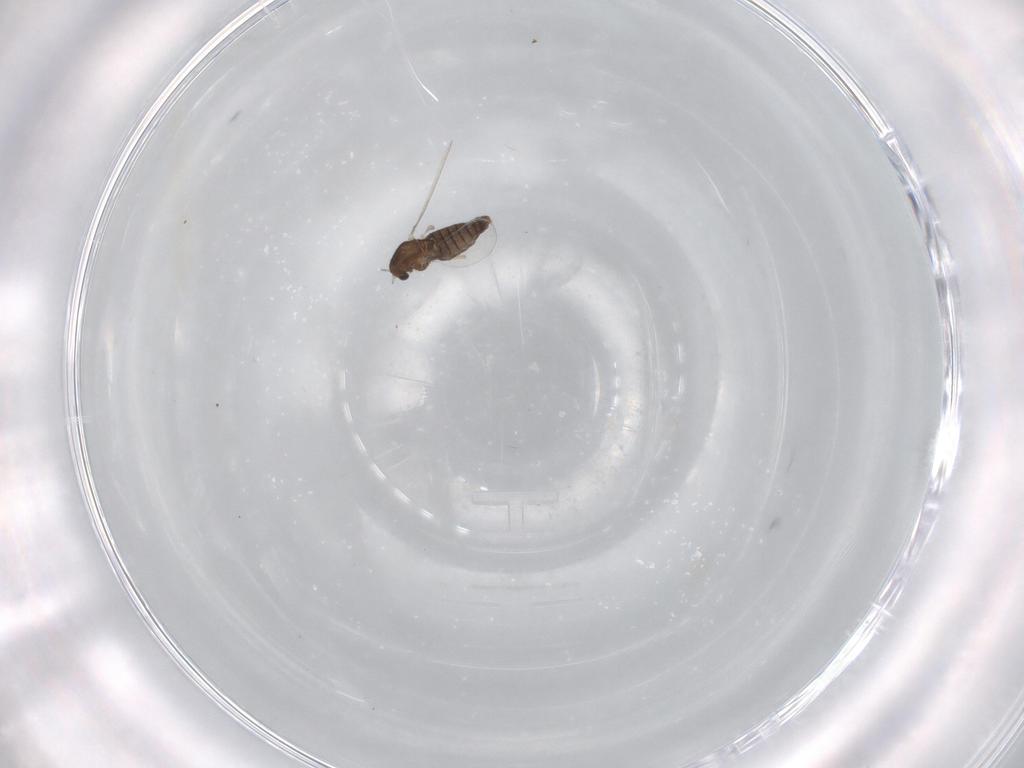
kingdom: Animalia
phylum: Arthropoda
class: Insecta
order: Diptera
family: Chironomidae
